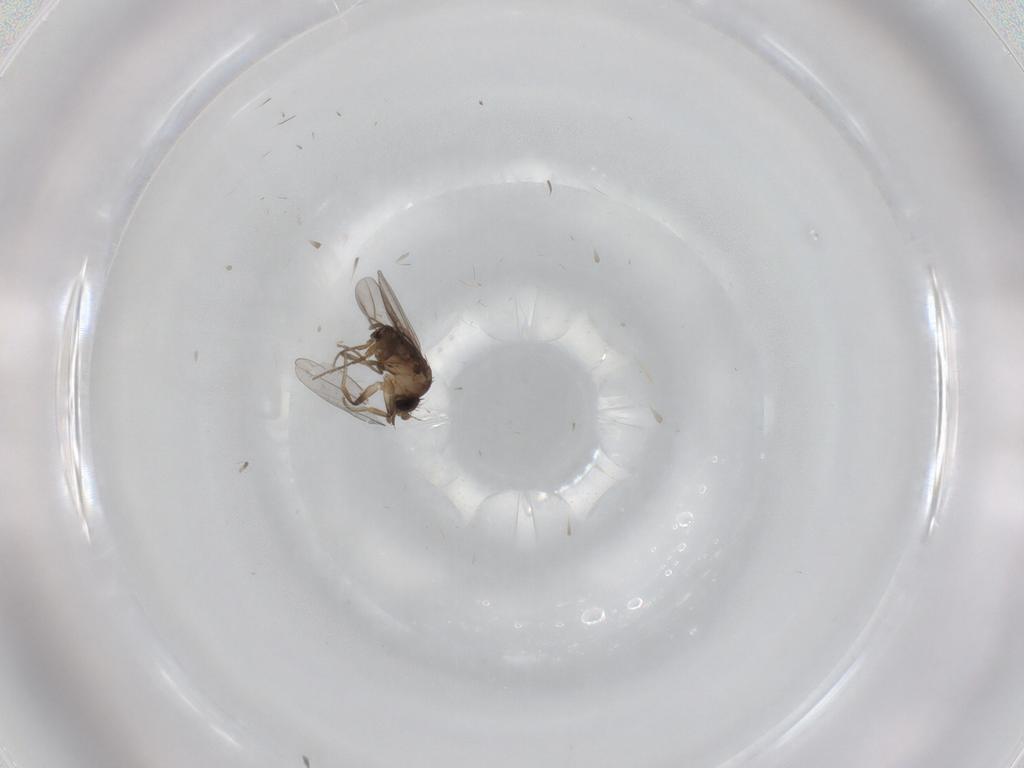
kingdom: Animalia
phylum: Arthropoda
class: Insecta
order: Diptera
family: Phoridae
